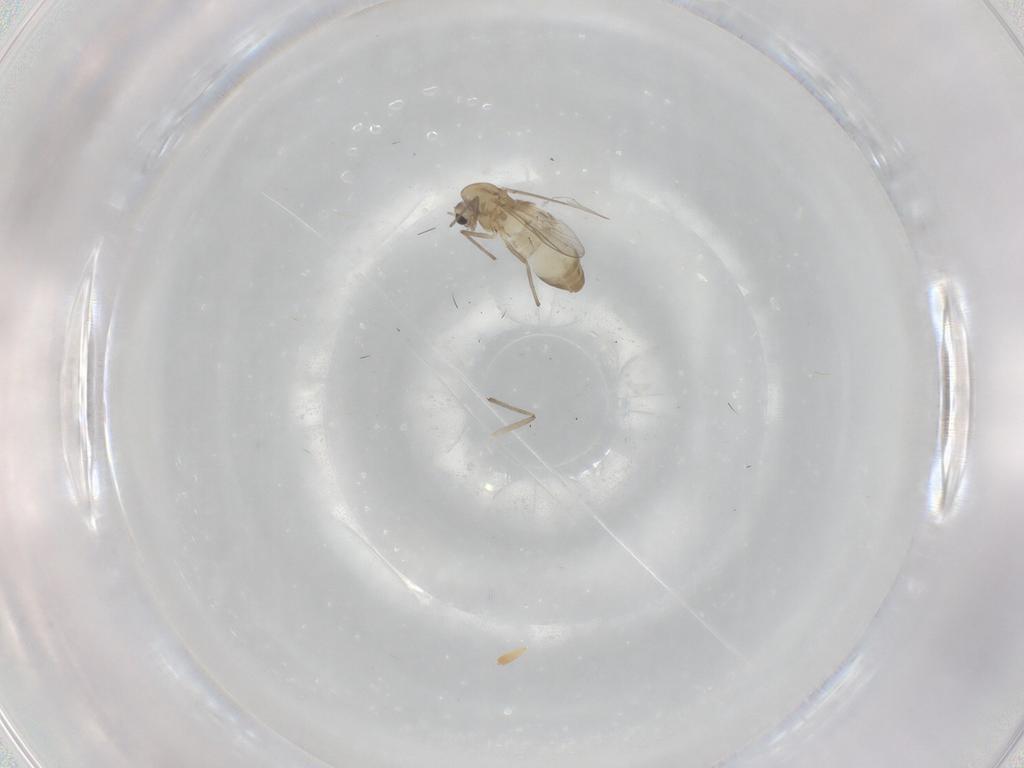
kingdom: Animalia
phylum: Arthropoda
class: Insecta
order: Diptera
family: Chironomidae
